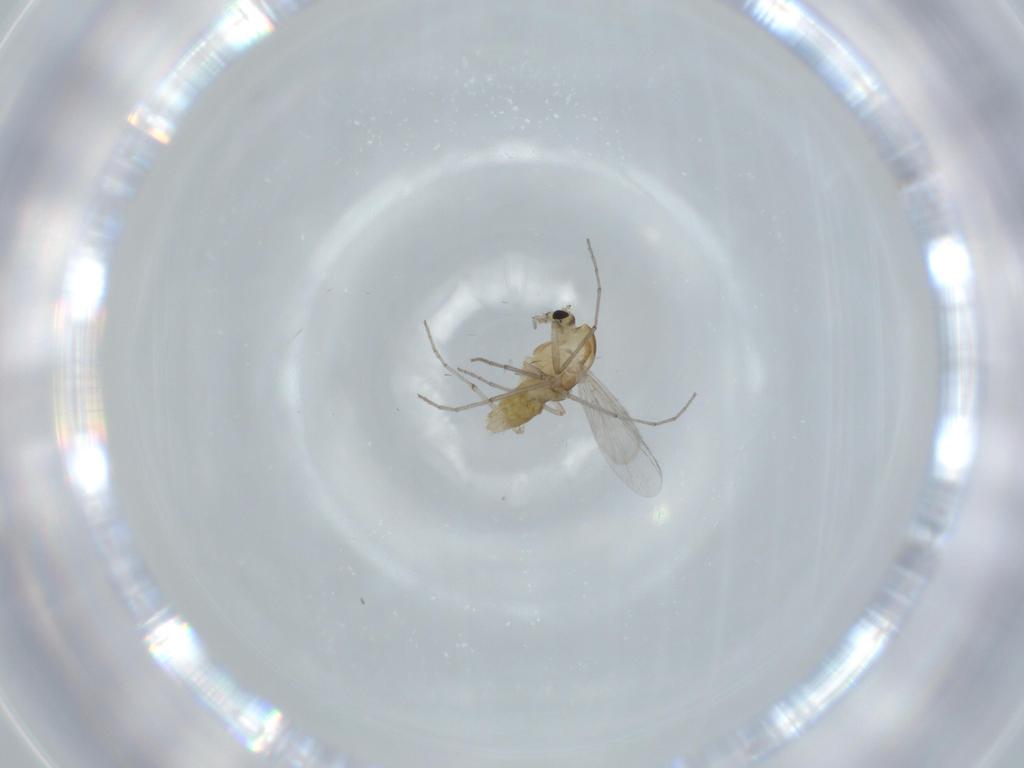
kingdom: Animalia
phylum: Arthropoda
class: Insecta
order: Diptera
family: Chironomidae
